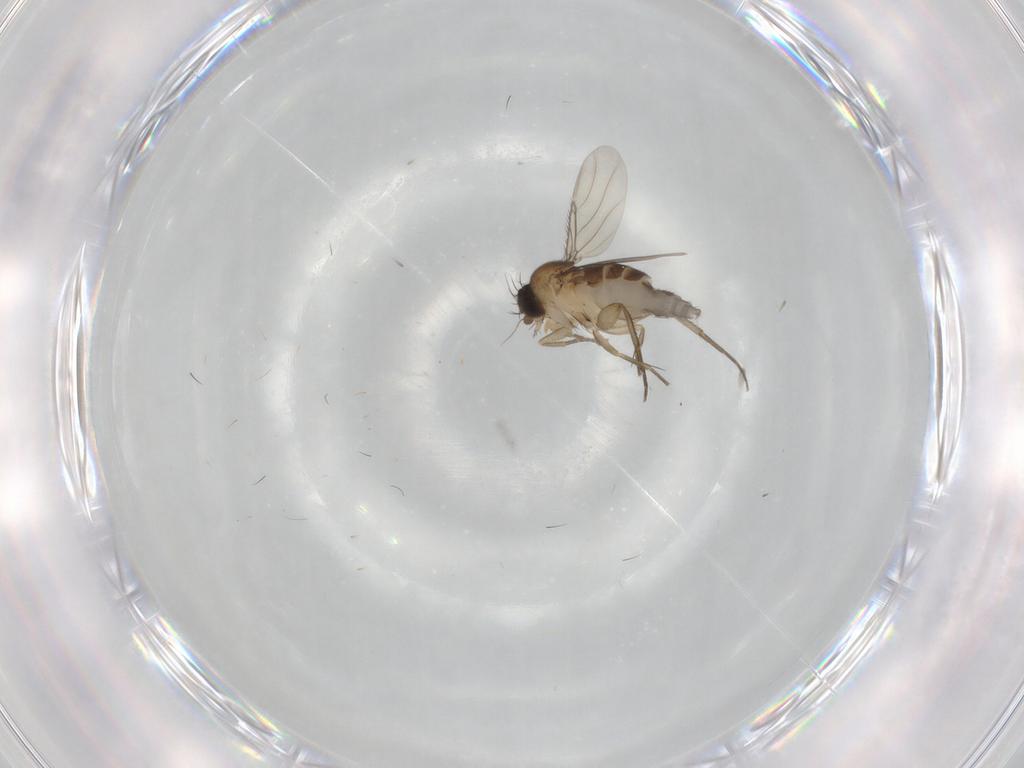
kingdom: Animalia
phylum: Arthropoda
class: Insecta
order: Diptera
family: Phoridae
